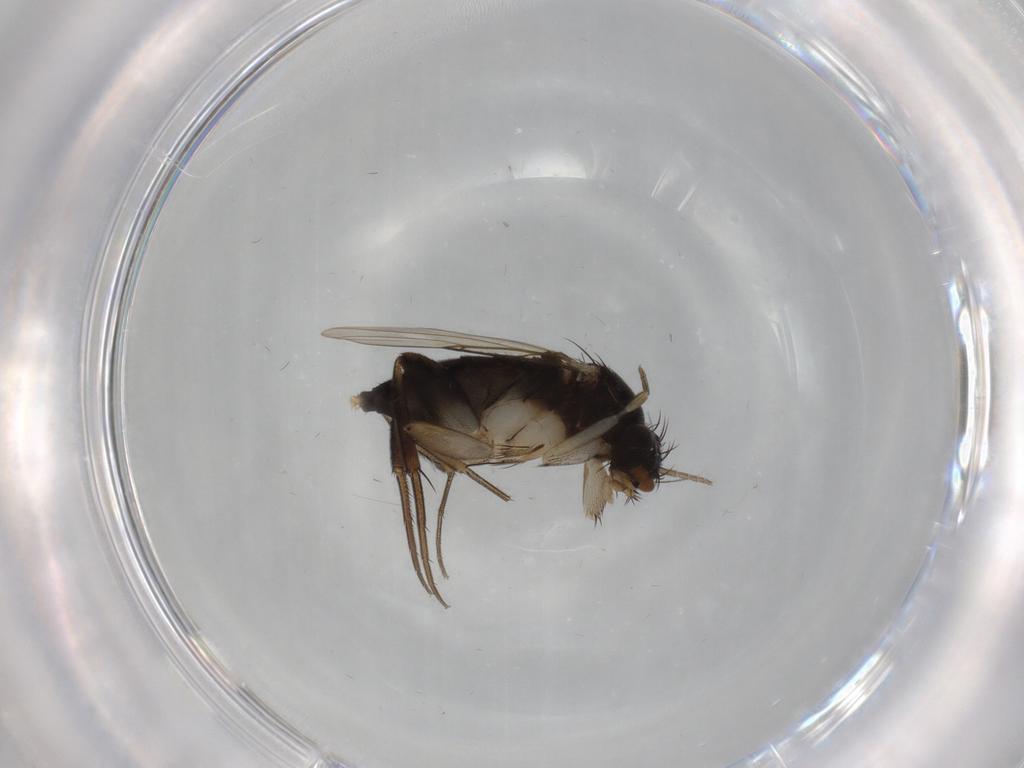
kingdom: Animalia
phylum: Arthropoda
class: Insecta
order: Diptera
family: Phoridae
